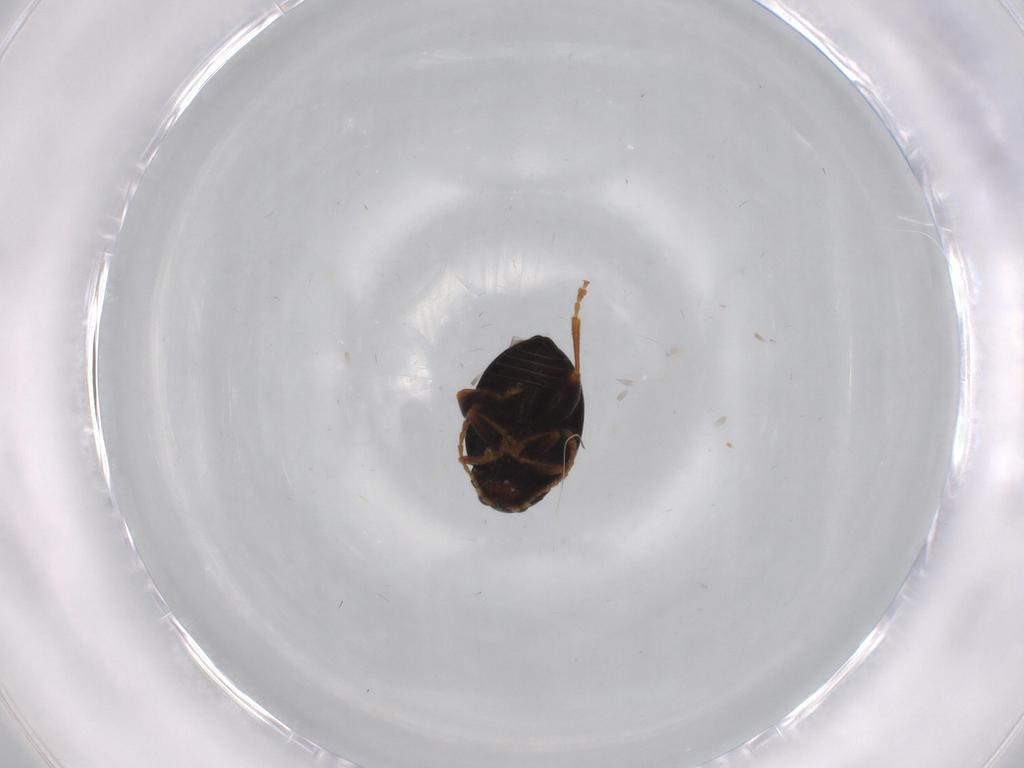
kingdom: Animalia
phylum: Arthropoda
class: Insecta
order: Coleoptera
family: Chrysomelidae
